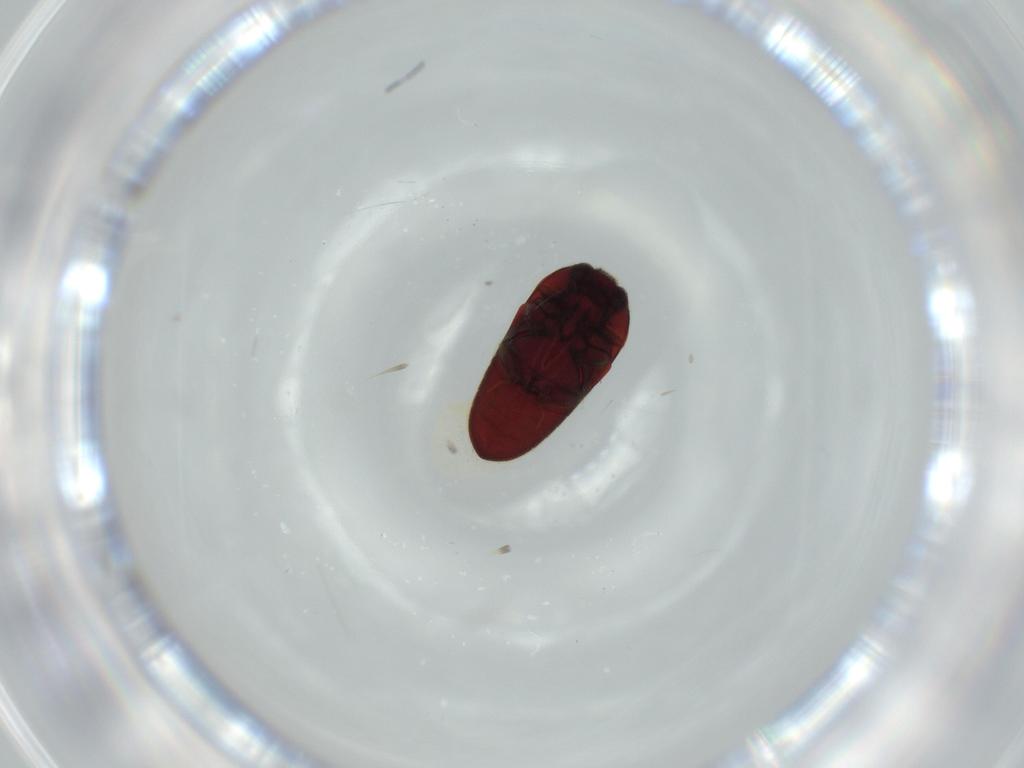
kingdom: Animalia
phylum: Arthropoda
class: Insecta
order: Coleoptera
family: Throscidae
